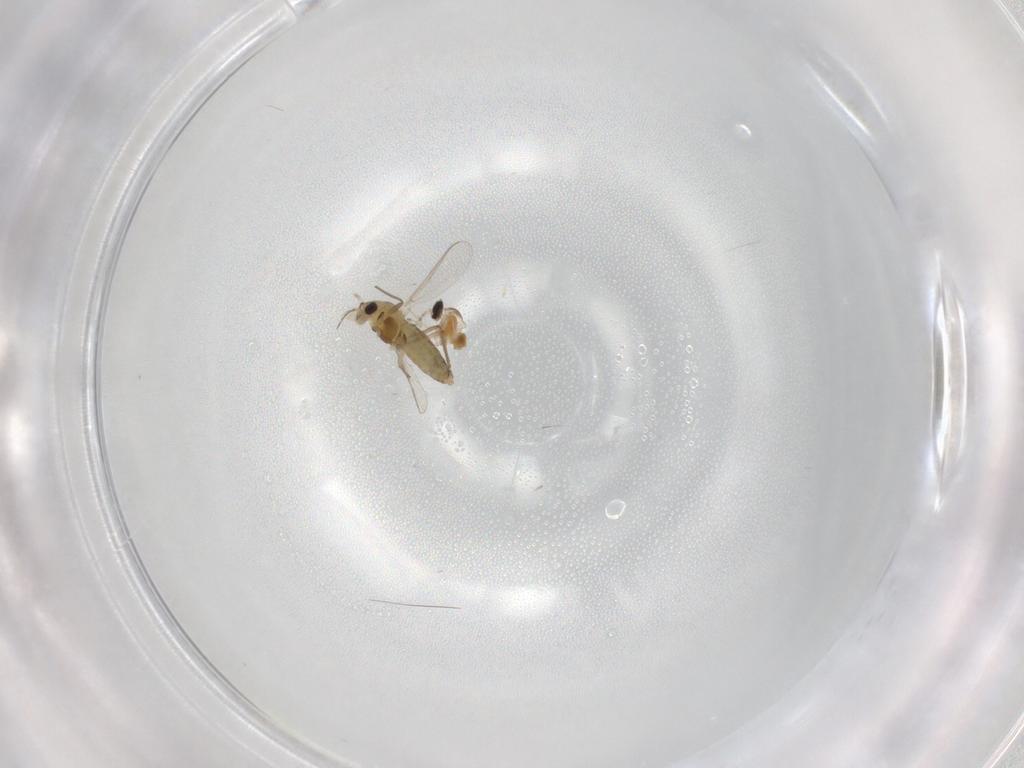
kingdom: Animalia
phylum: Arthropoda
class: Insecta
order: Diptera
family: Chironomidae
